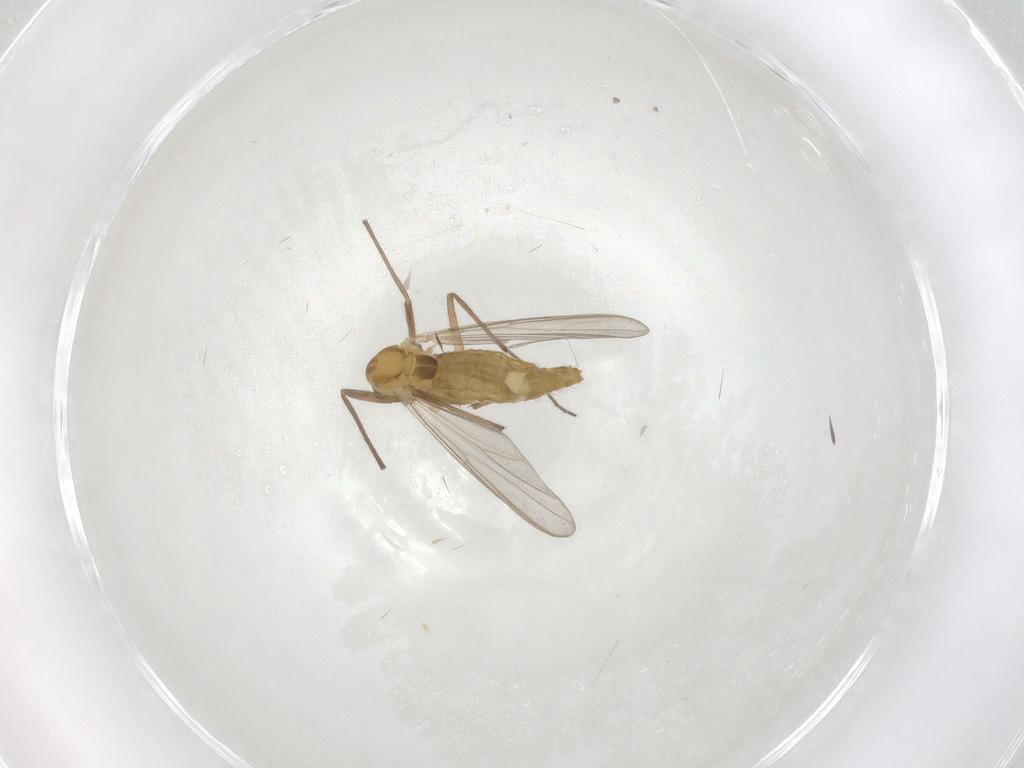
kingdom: Animalia
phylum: Arthropoda
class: Insecta
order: Diptera
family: Chironomidae
